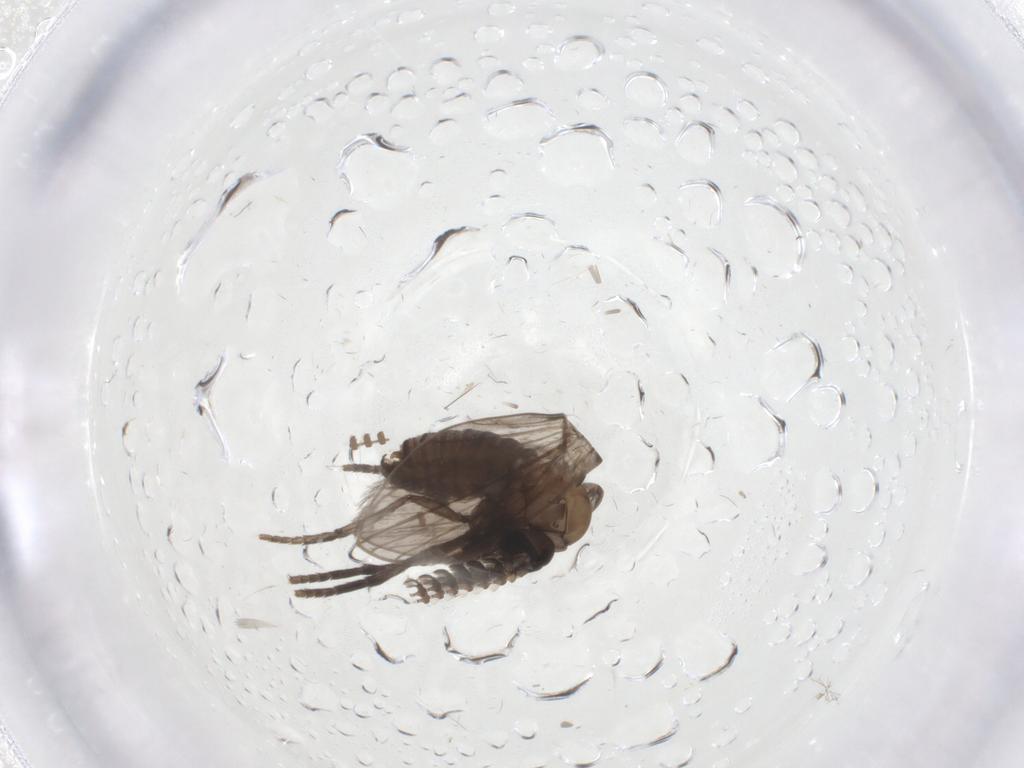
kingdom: Animalia
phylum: Arthropoda
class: Insecta
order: Diptera
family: Psychodidae
